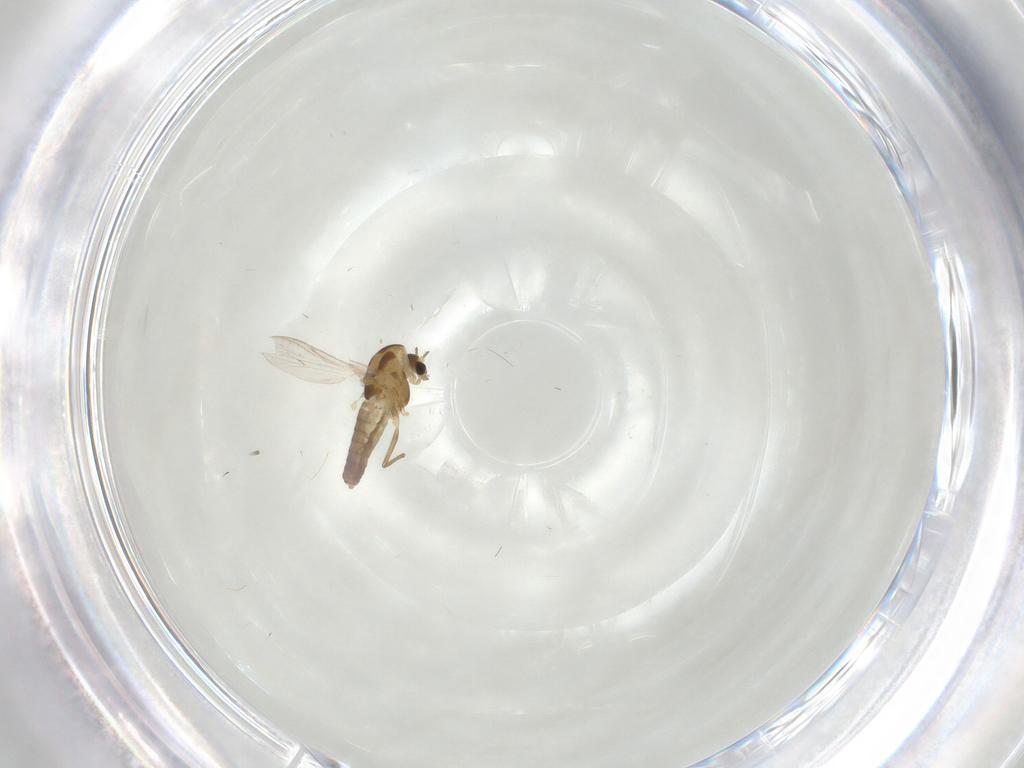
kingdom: Animalia
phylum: Arthropoda
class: Insecta
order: Diptera
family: Chironomidae
